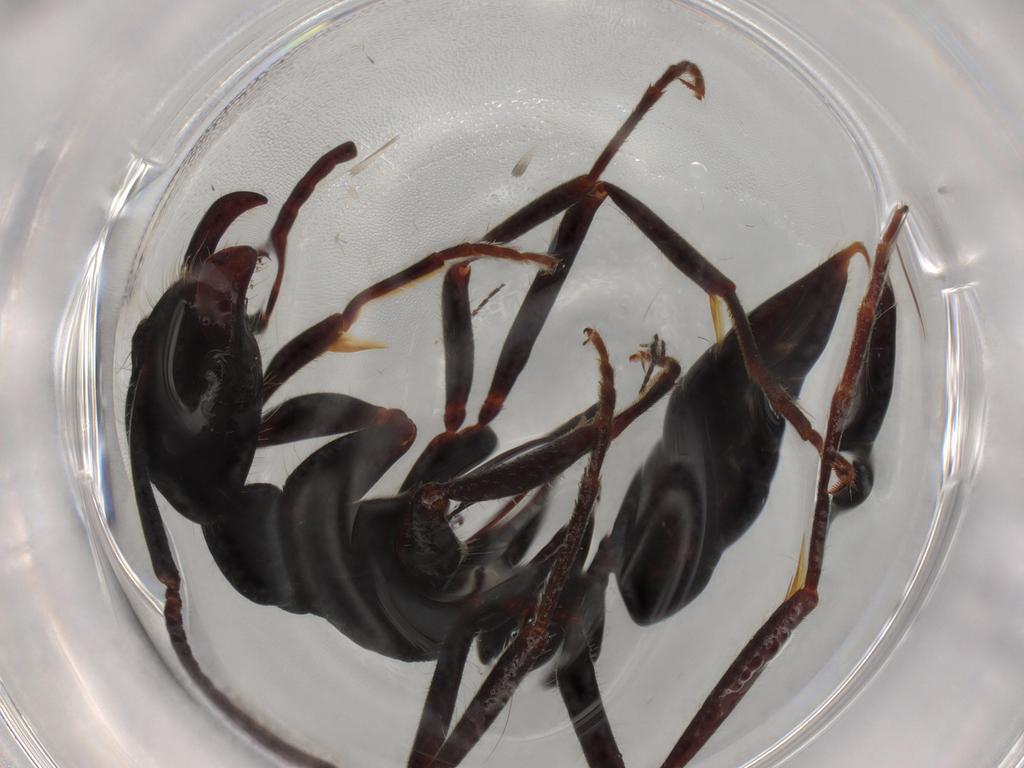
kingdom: Animalia
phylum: Arthropoda
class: Insecta
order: Hymenoptera
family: Formicidae
